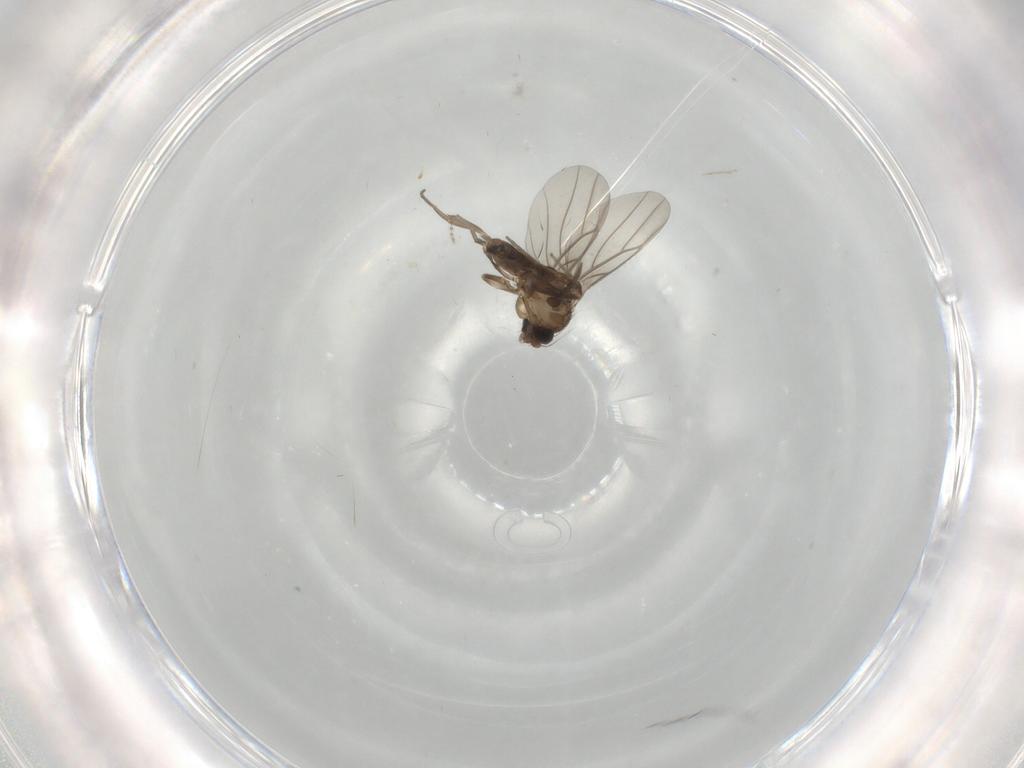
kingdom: Animalia
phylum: Arthropoda
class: Insecta
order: Diptera
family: Phoridae
